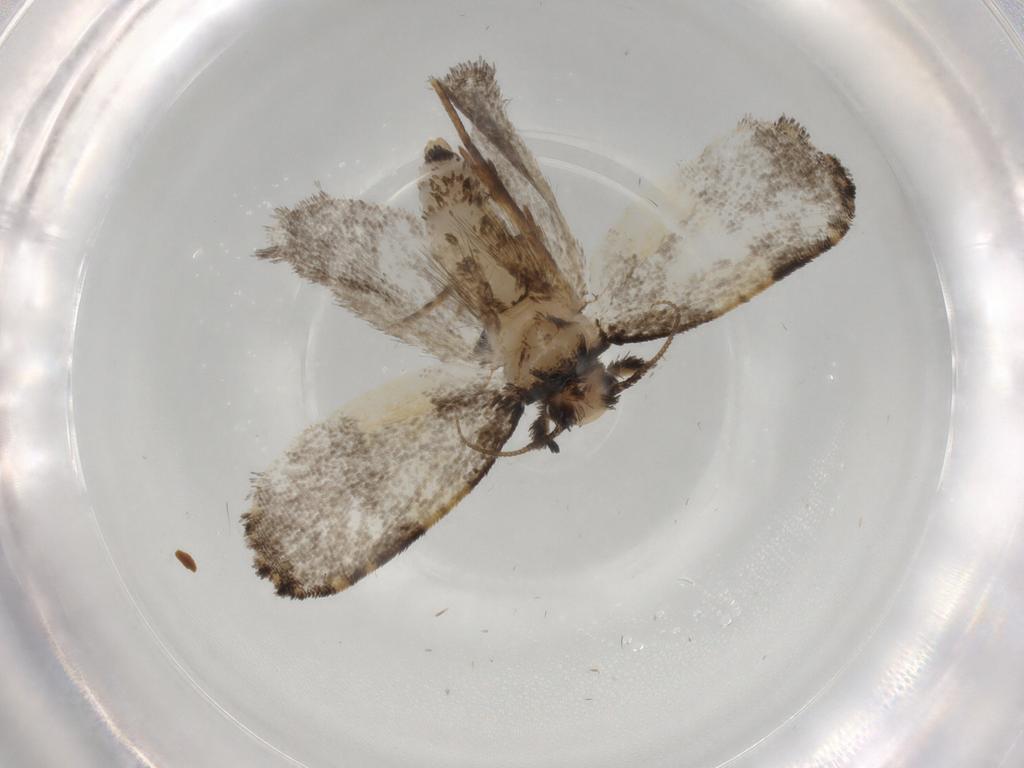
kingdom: Animalia
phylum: Arthropoda
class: Insecta
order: Lepidoptera
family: Psychidae
